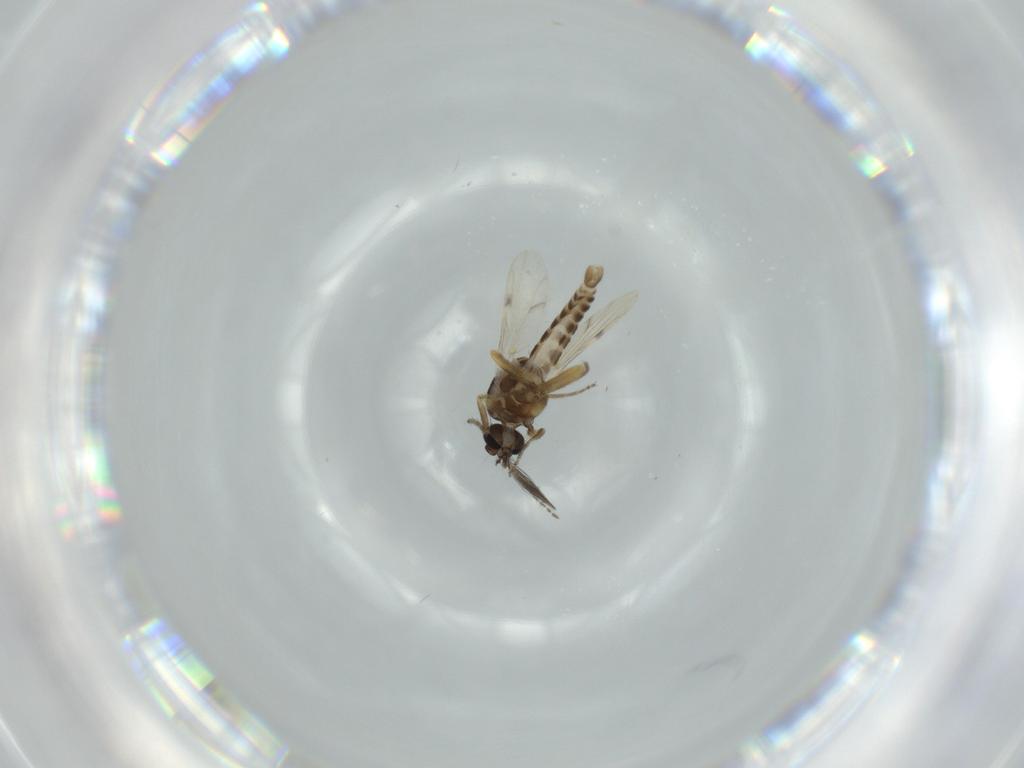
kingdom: Animalia
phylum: Arthropoda
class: Insecta
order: Diptera
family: Ceratopogonidae
